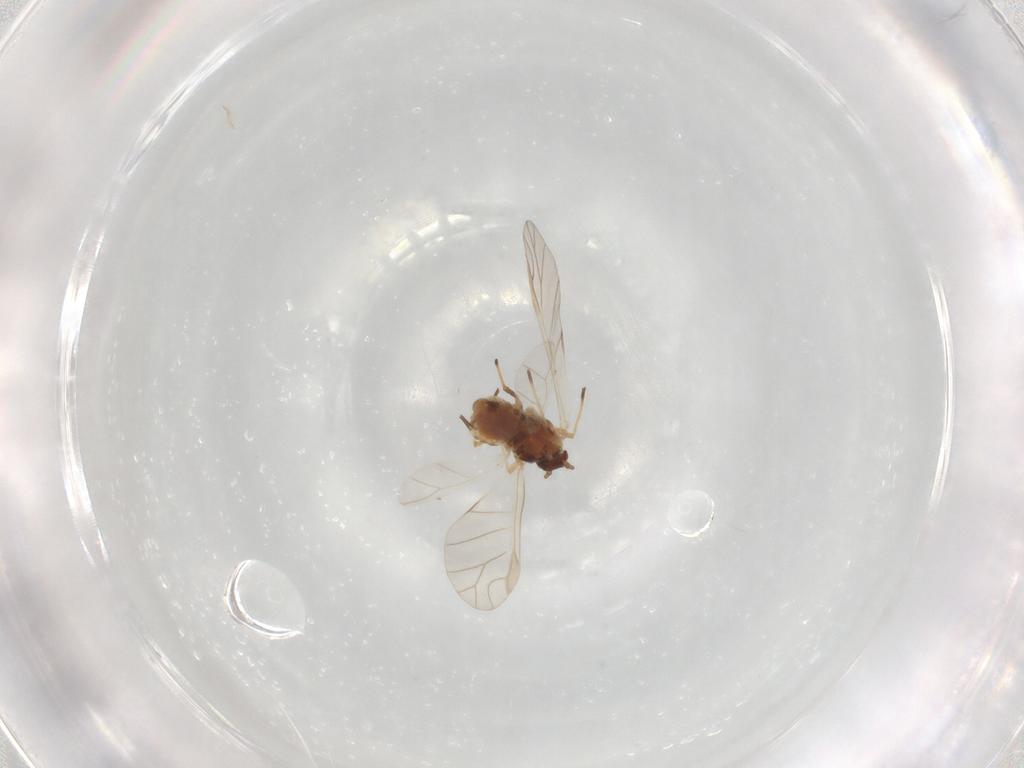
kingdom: Animalia
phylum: Arthropoda
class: Insecta
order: Hemiptera
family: Aphididae
